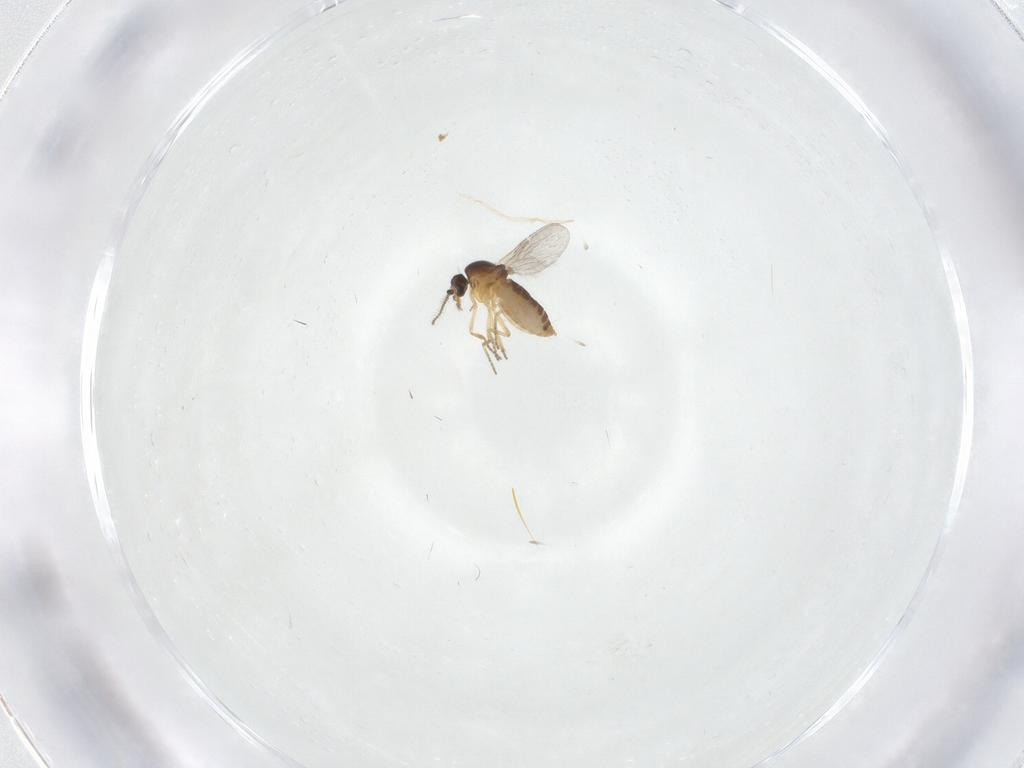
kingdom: Animalia
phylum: Arthropoda
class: Insecta
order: Diptera
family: Ceratopogonidae
